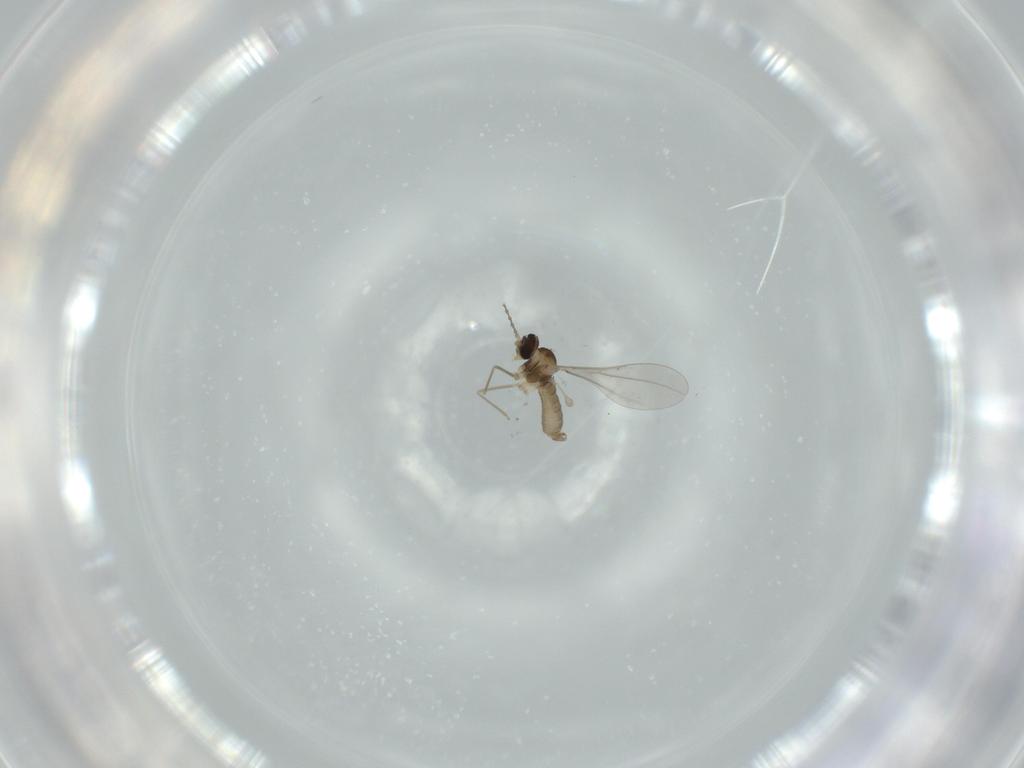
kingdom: Animalia
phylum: Arthropoda
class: Insecta
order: Diptera
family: Cecidomyiidae
